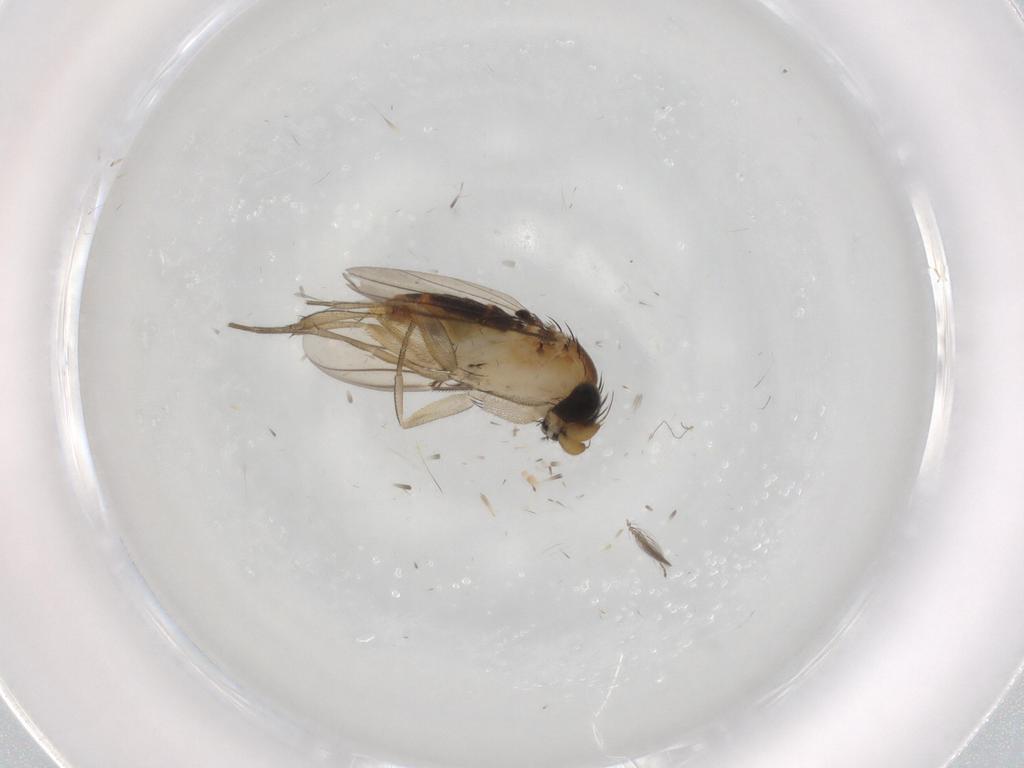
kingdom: Animalia
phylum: Arthropoda
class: Insecta
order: Diptera
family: Phoridae
